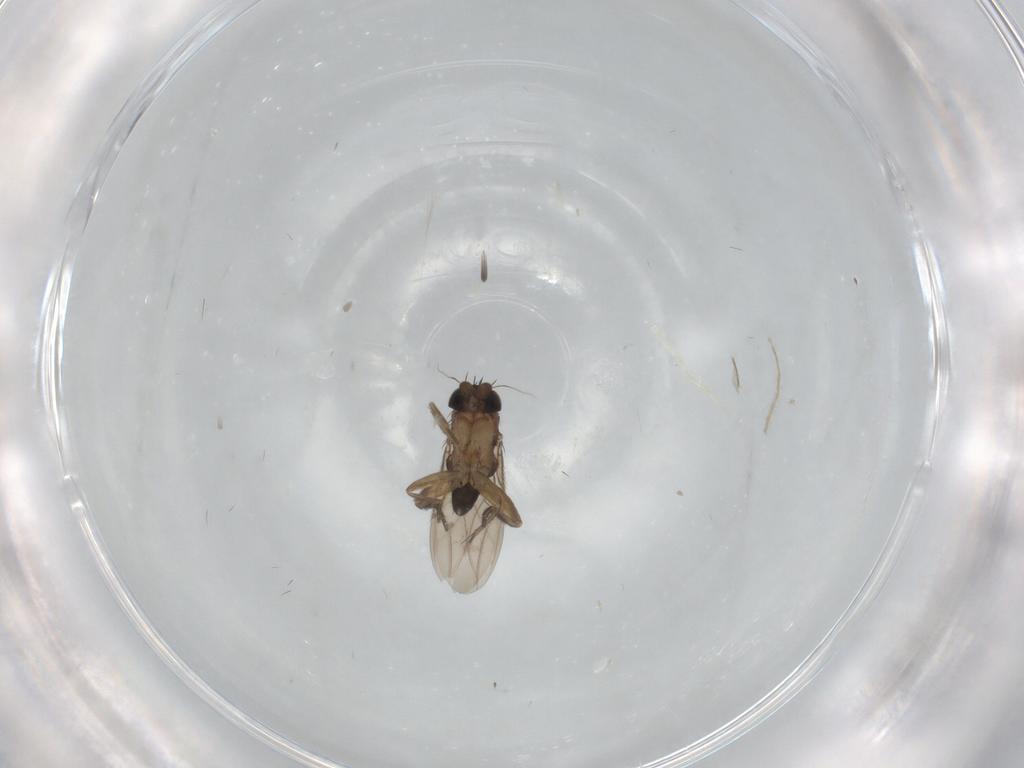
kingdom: Animalia
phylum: Arthropoda
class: Insecta
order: Diptera
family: Phoridae
